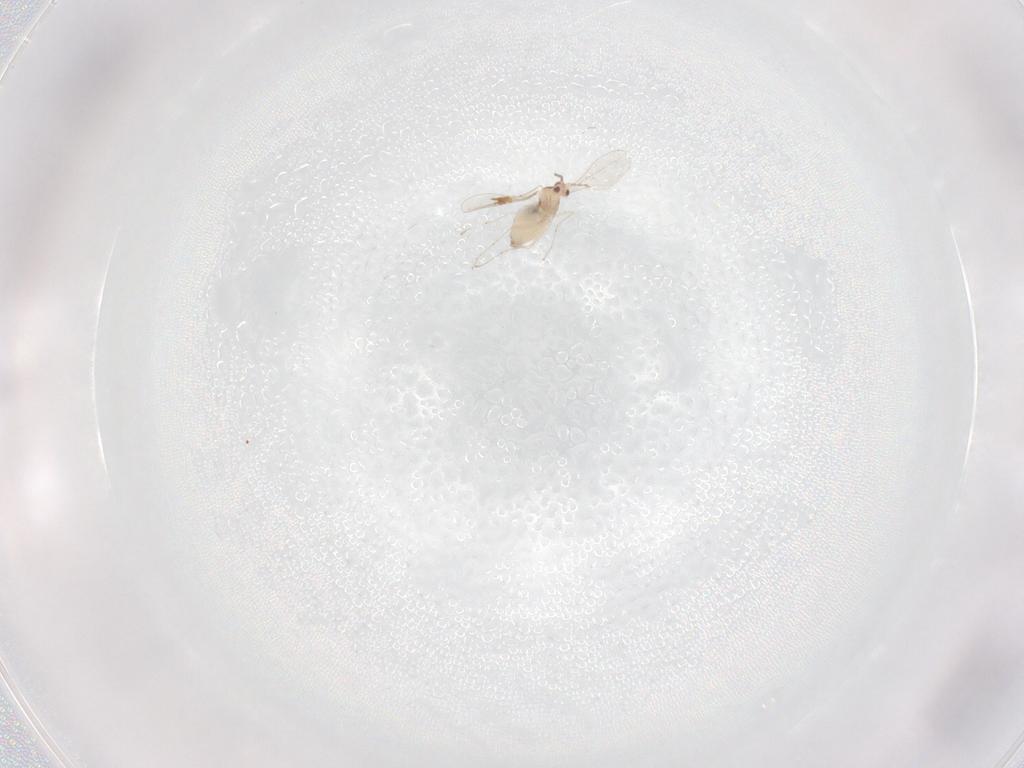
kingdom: Animalia
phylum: Arthropoda
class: Insecta
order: Diptera
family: Cecidomyiidae
